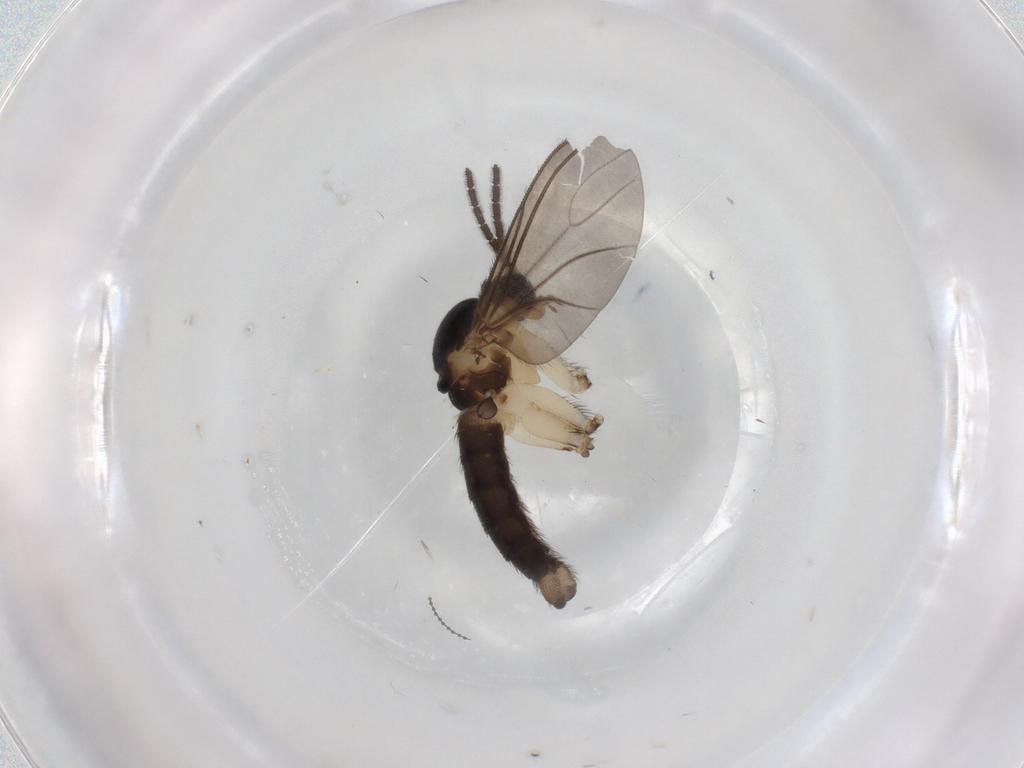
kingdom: Animalia
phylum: Arthropoda
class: Insecta
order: Diptera
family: Sciaridae
